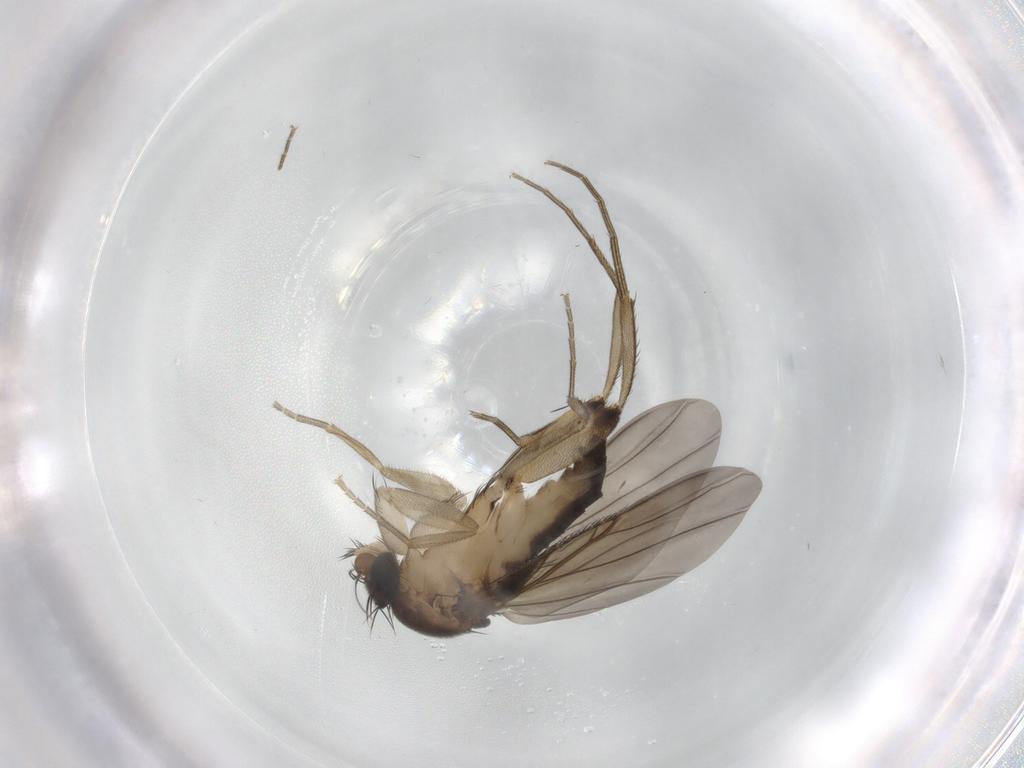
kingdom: Animalia
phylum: Arthropoda
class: Insecta
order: Diptera
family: Phoridae
